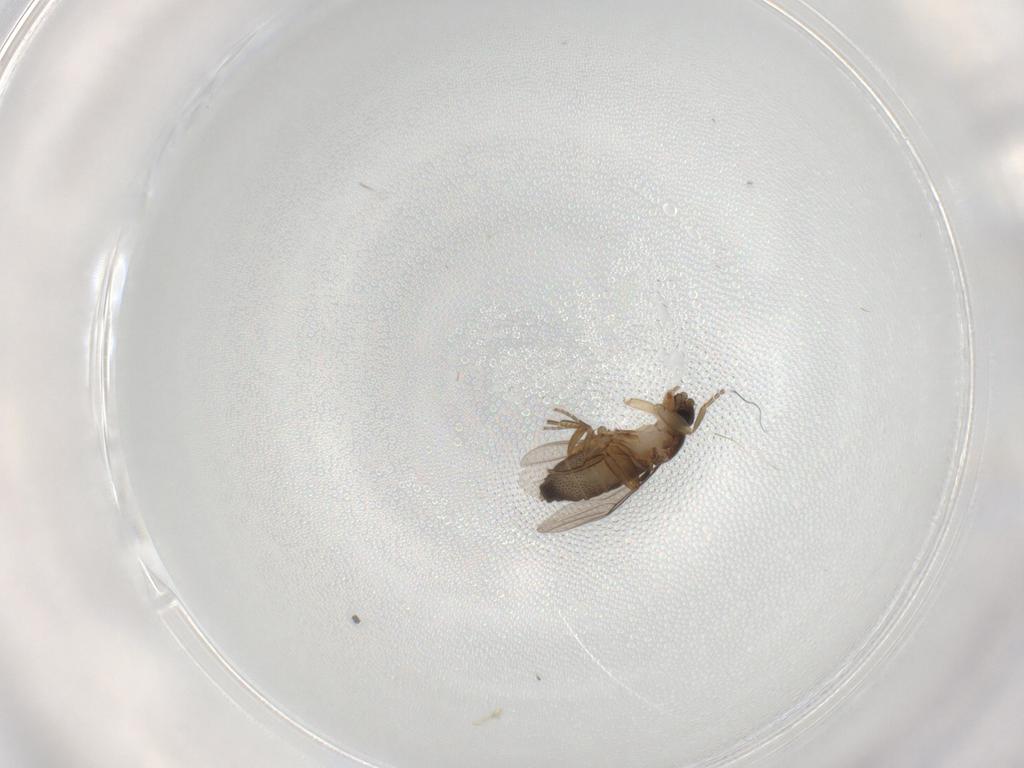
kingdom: Animalia
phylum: Arthropoda
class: Insecta
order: Diptera
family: Phoridae
